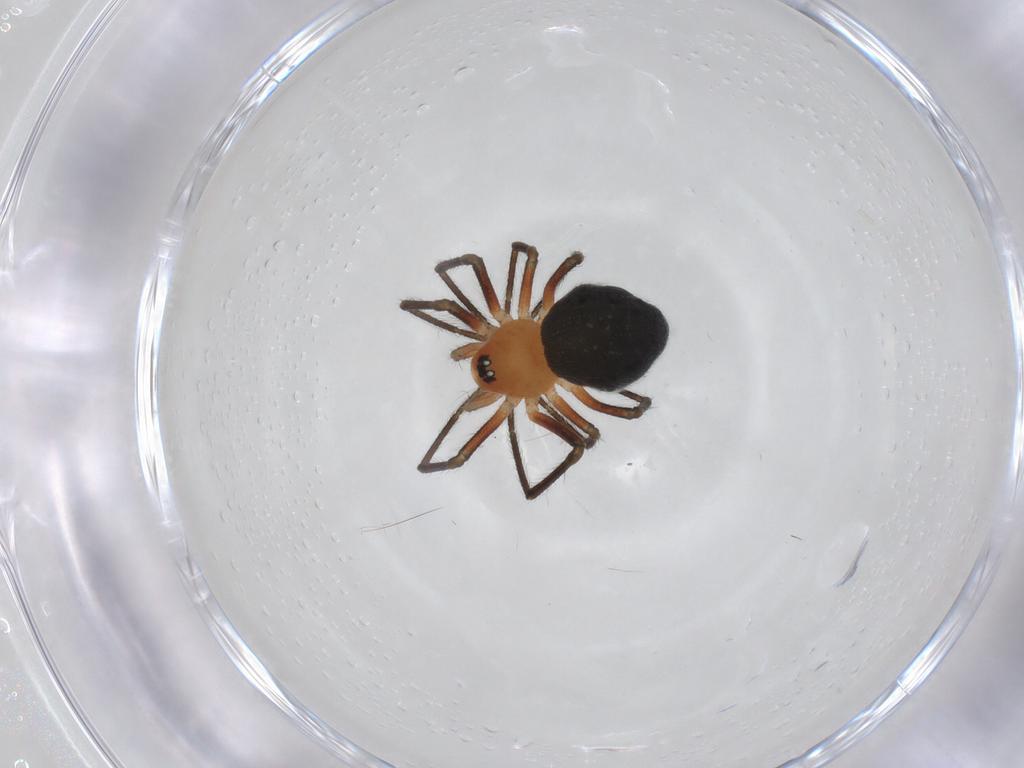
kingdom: Animalia
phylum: Arthropoda
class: Arachnida
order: Araneae
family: Linyphiidae
